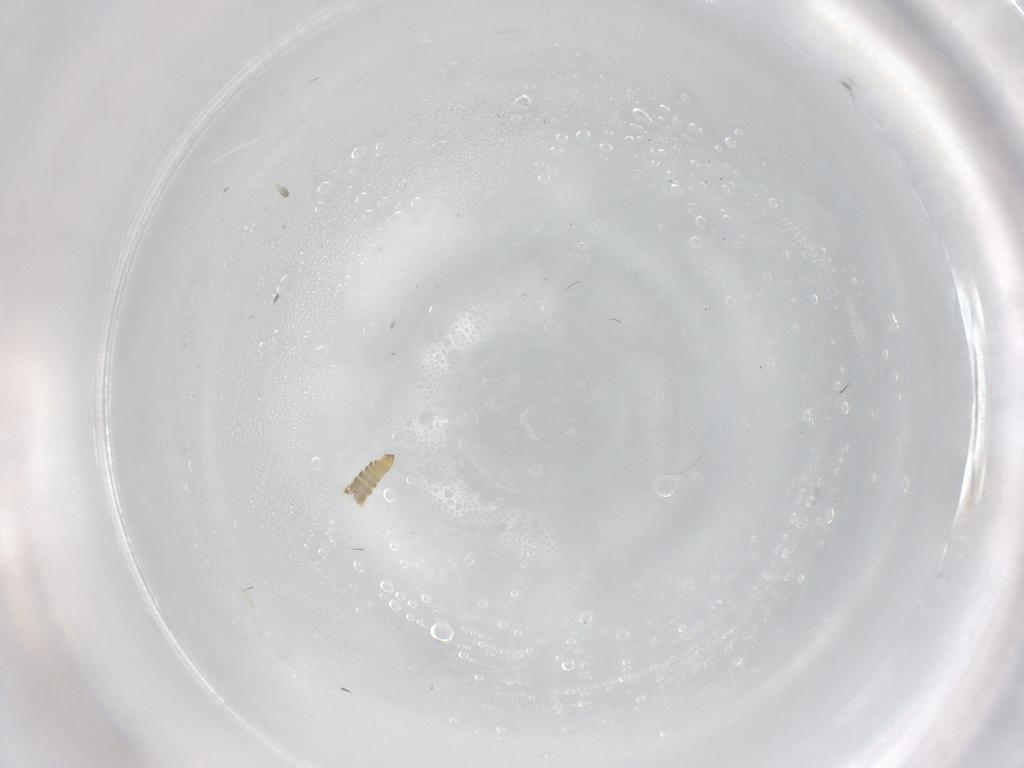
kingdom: Animalia
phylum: Arthropoda
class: Insecta
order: Diptera
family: Ceratopogonidae
